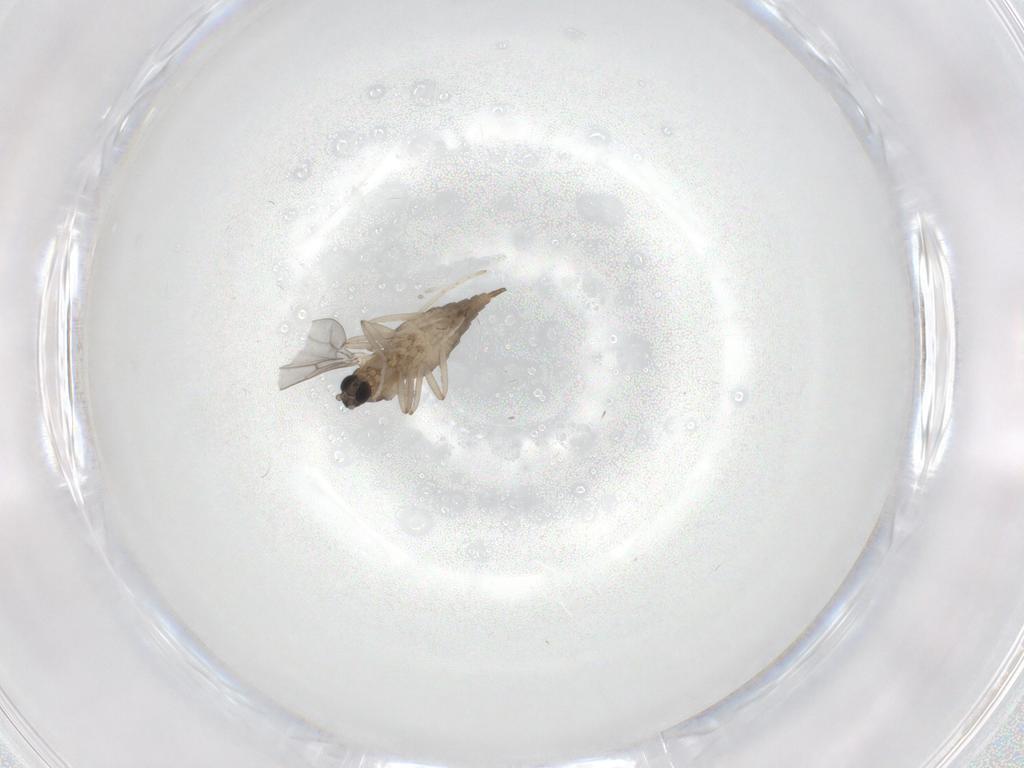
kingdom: Animalia
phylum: Arthropoda
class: Insecta
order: Diptera
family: Cecidomyiidae
